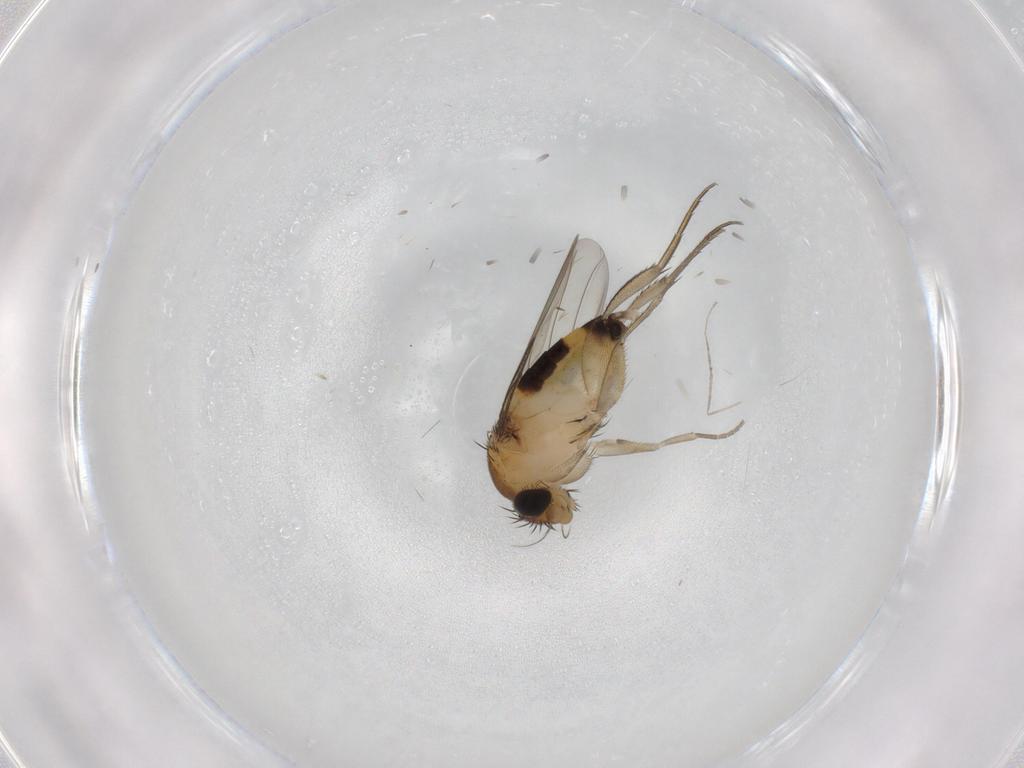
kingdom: Animalia
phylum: Arthropoda
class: Insecta
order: Diptera
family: Phoridae
